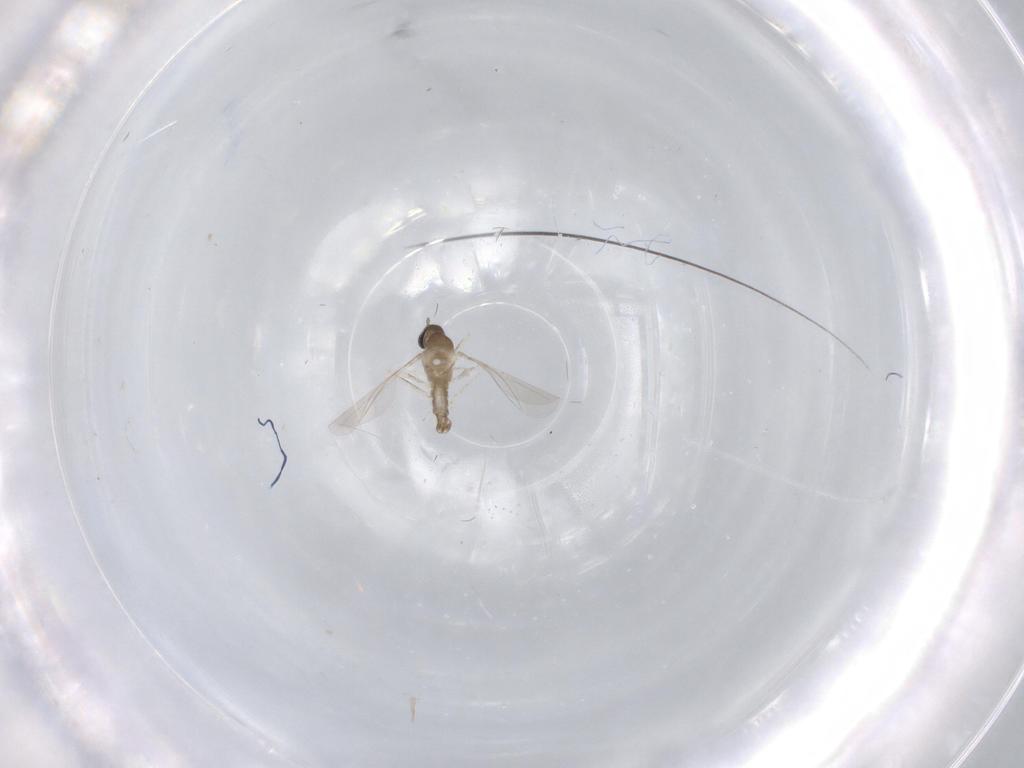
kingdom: Animalia
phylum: Arthropoda
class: Insecta
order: Diptera
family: Cecidomyiidae
